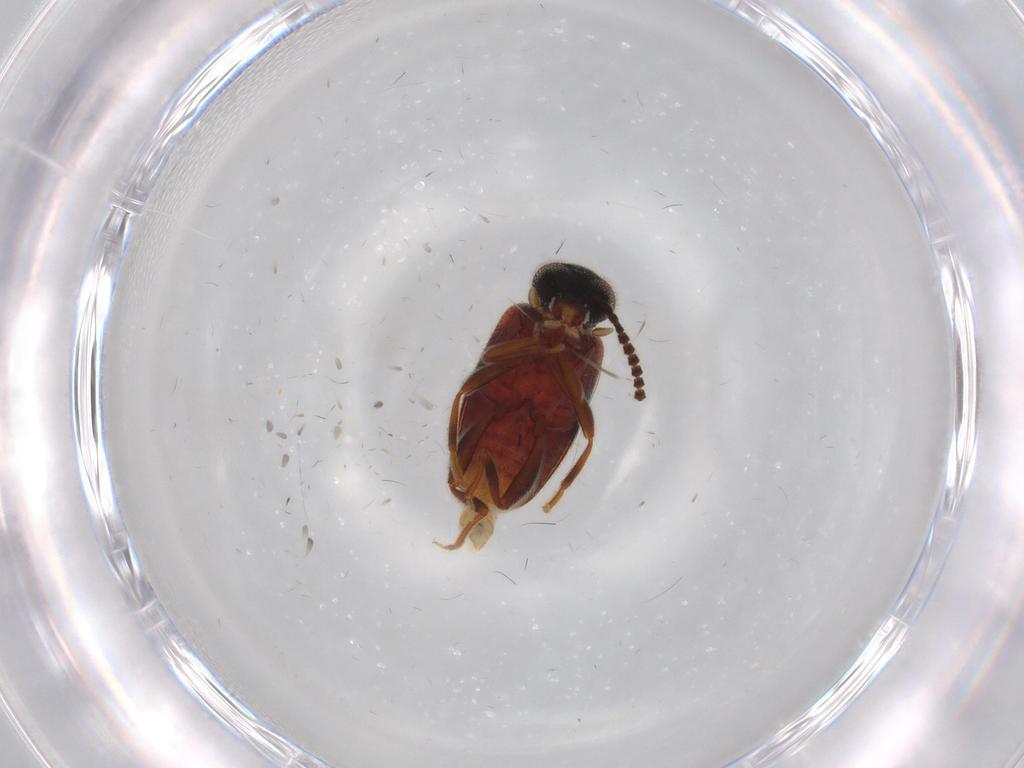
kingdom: Animalia
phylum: Arthropoda
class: Insecta
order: Coleoptera
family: Erotylidae
